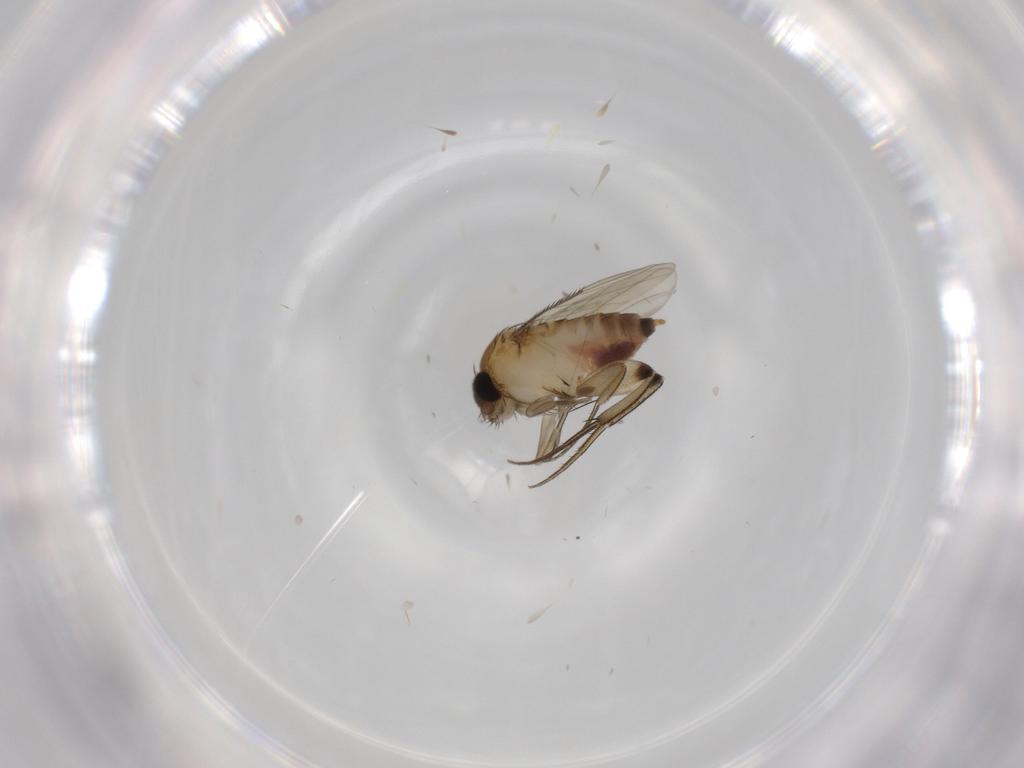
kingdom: Animalia
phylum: Arthropoda
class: Insecta
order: Diptera
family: Phoridae
